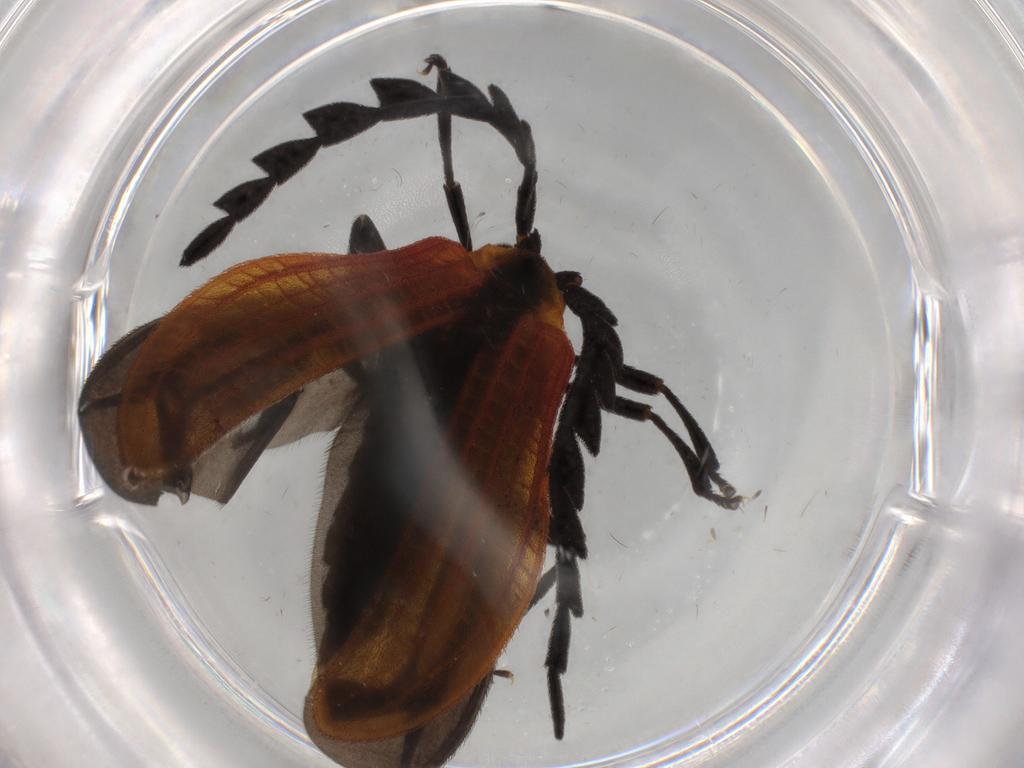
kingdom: Animalia
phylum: Arthropoda
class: Insecta
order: Coleoptera
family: Lycidae
